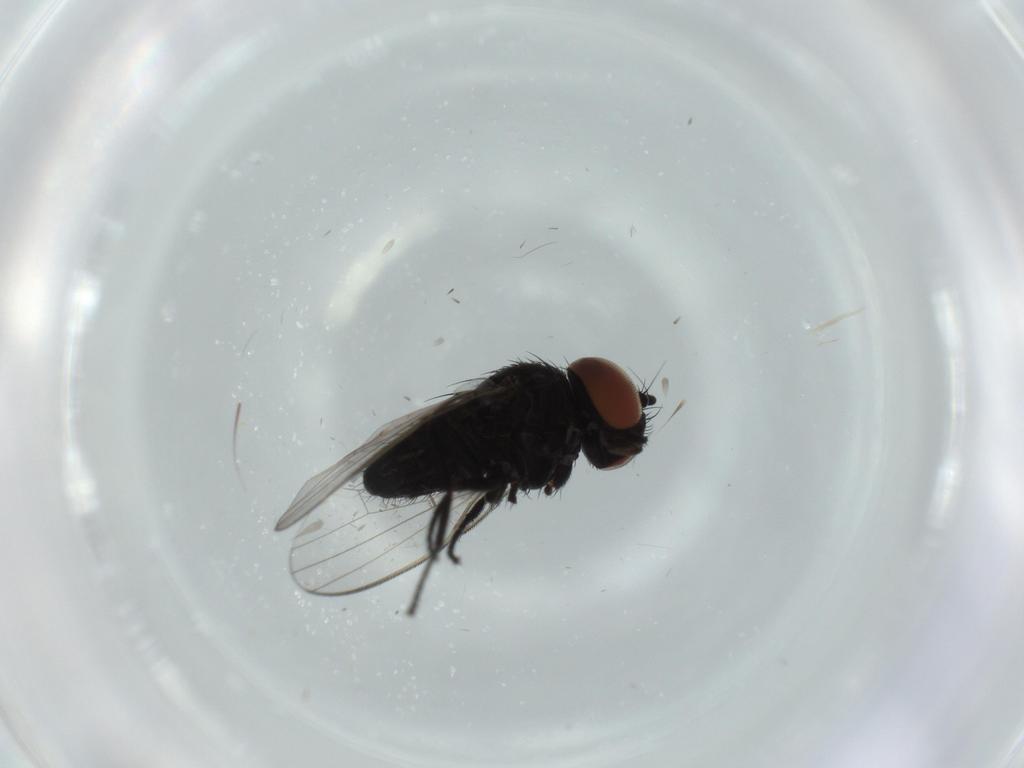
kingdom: Animalia
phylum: Arthropoda
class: Insecta
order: Diptera
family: Milichiidae
